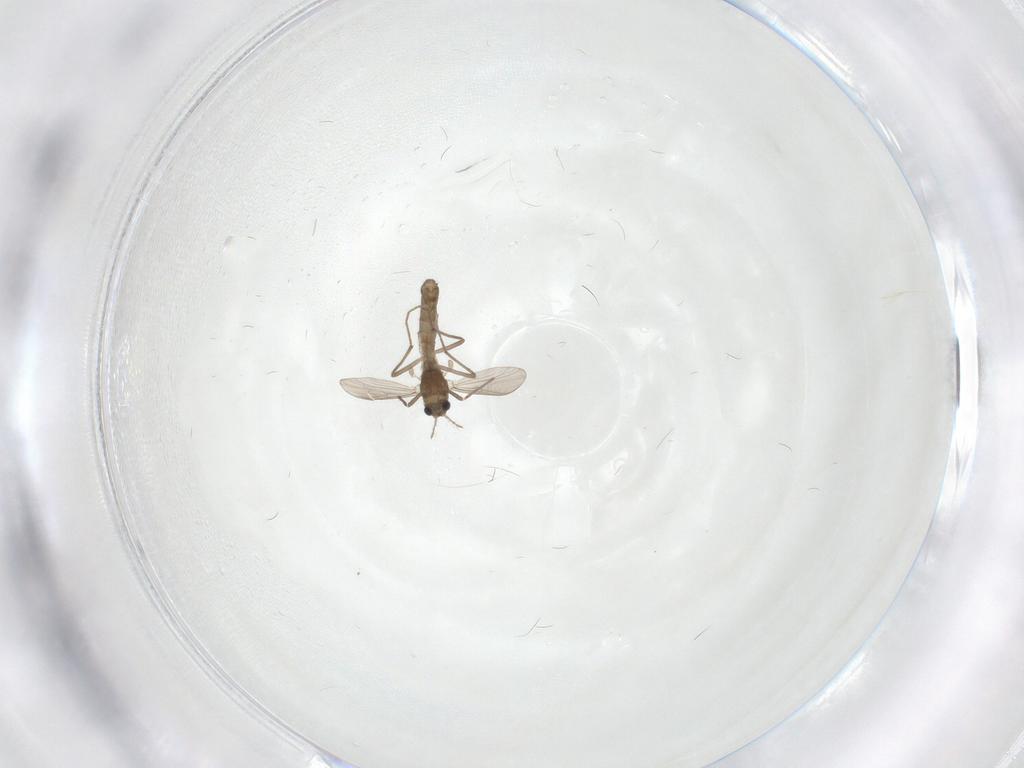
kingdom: Animalia
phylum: Arthropoda
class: Insecta
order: Diptera
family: Chironomidae
